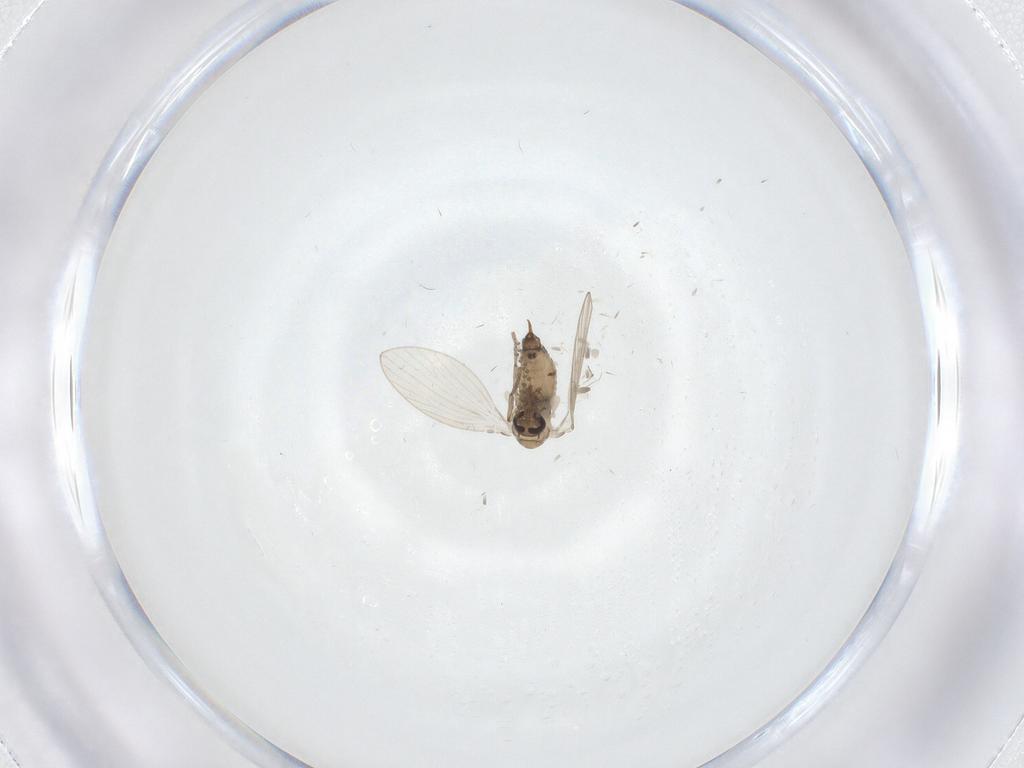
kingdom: Animalia
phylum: Arthropoda
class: Insecta
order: Diptera
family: Psychodidae
